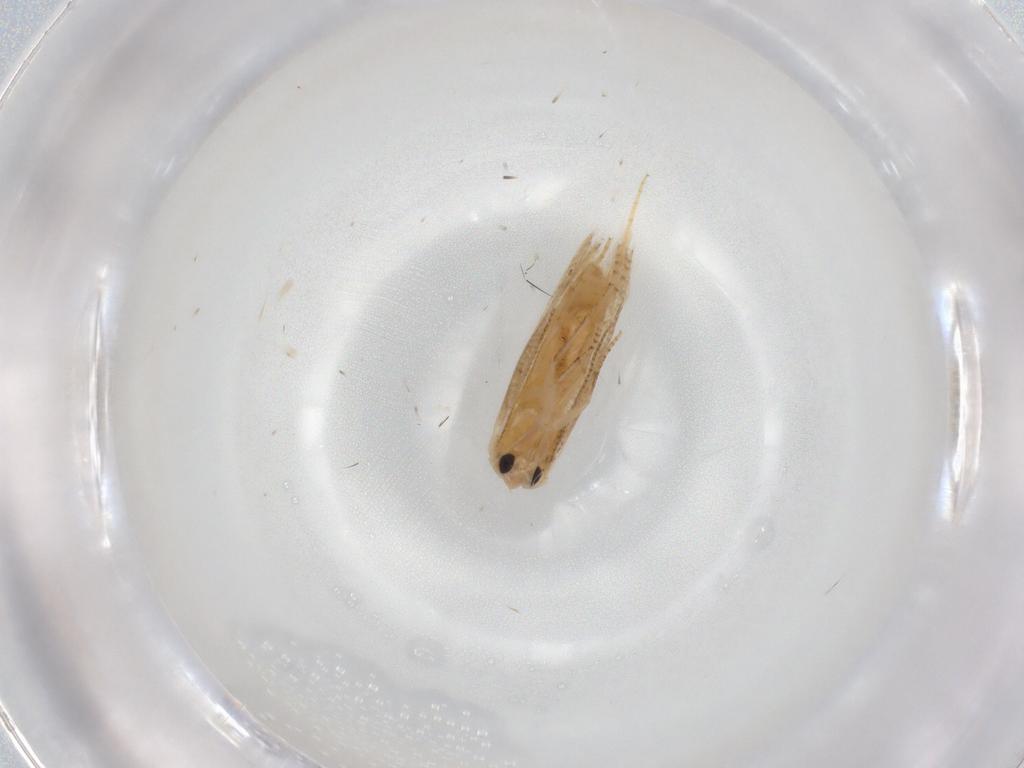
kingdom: Animalia
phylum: Arthropoda
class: Insecta
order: Lepidoptera
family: Noctuidae
